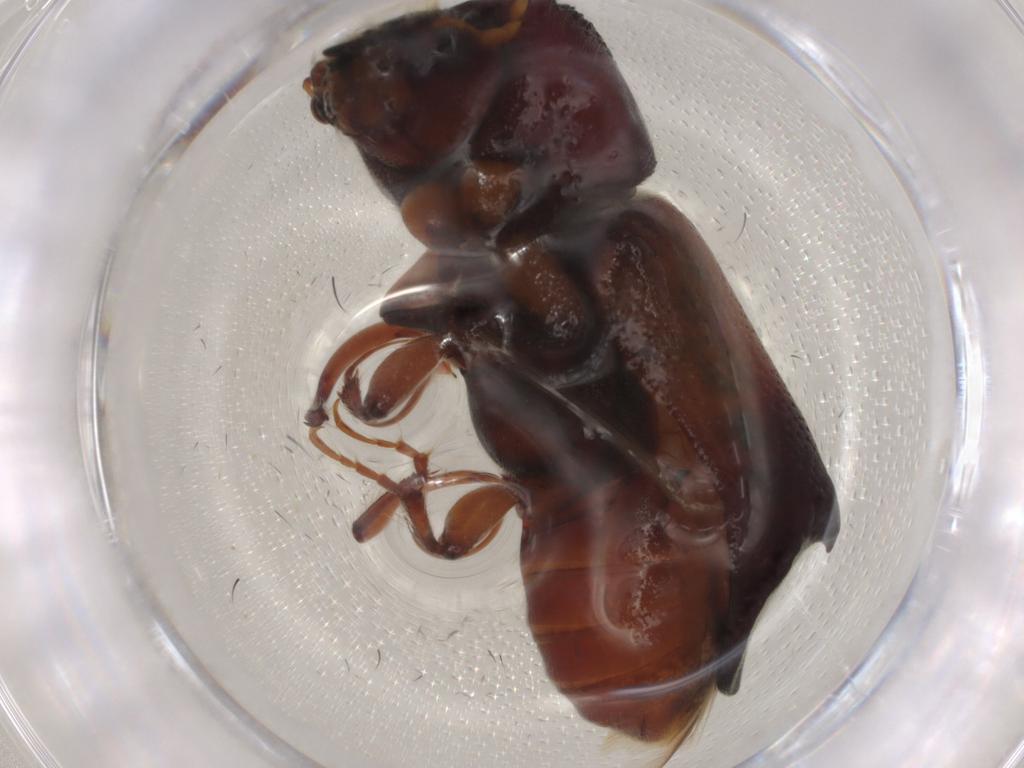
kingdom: Animalia
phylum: Arthropoda
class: Insecta
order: Coleoptera
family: Bostrichidae
